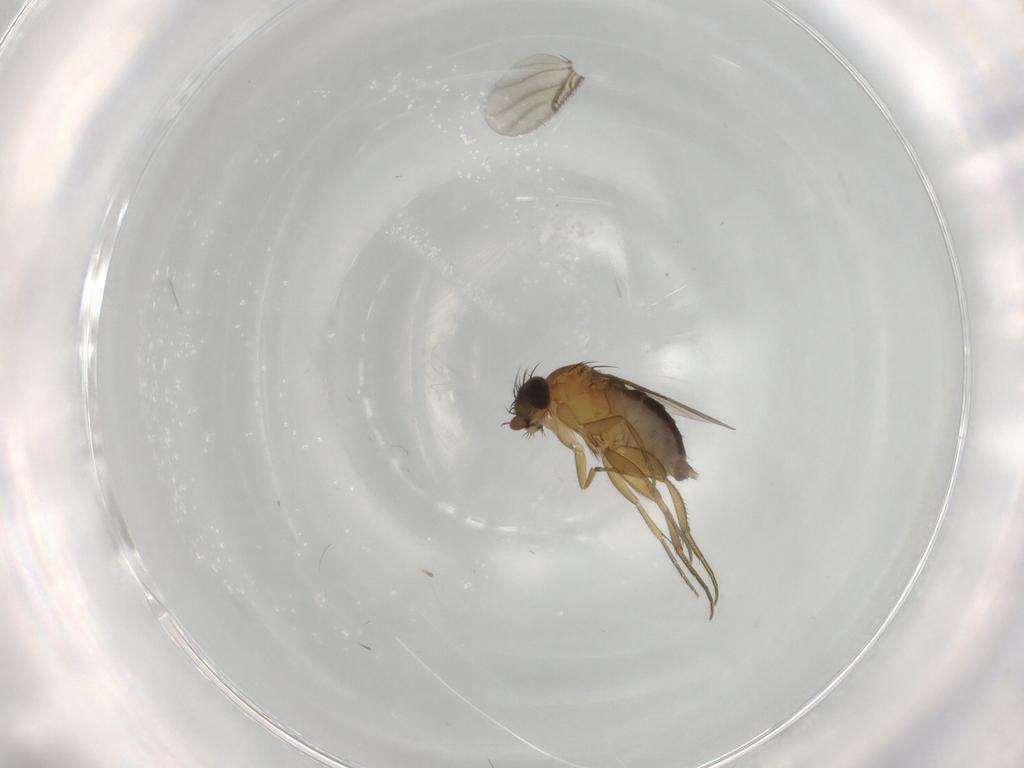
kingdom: Animalia
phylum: Arthropoda
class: Insecta
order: Diptera
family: Phoridae
